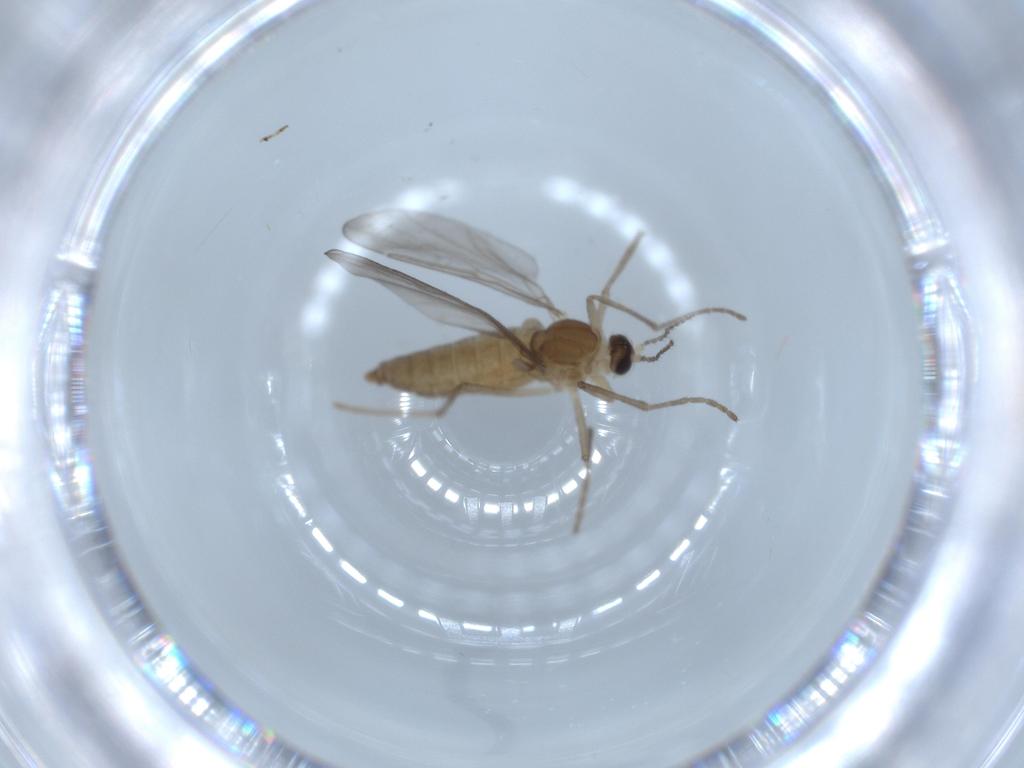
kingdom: Animalia
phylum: Arthropoda
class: Insecta
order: Diptera
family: Cecidomyiidae
